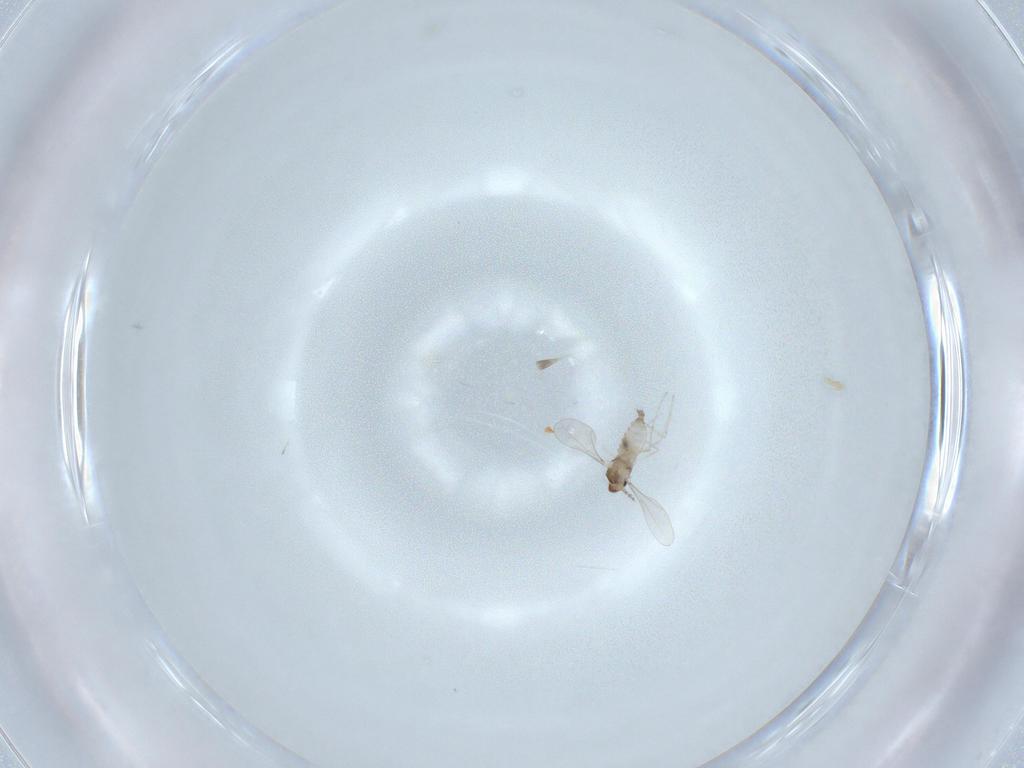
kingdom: Animalia
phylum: Arthropoda
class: Insecta
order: Diptera
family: Cecidomyiidae
